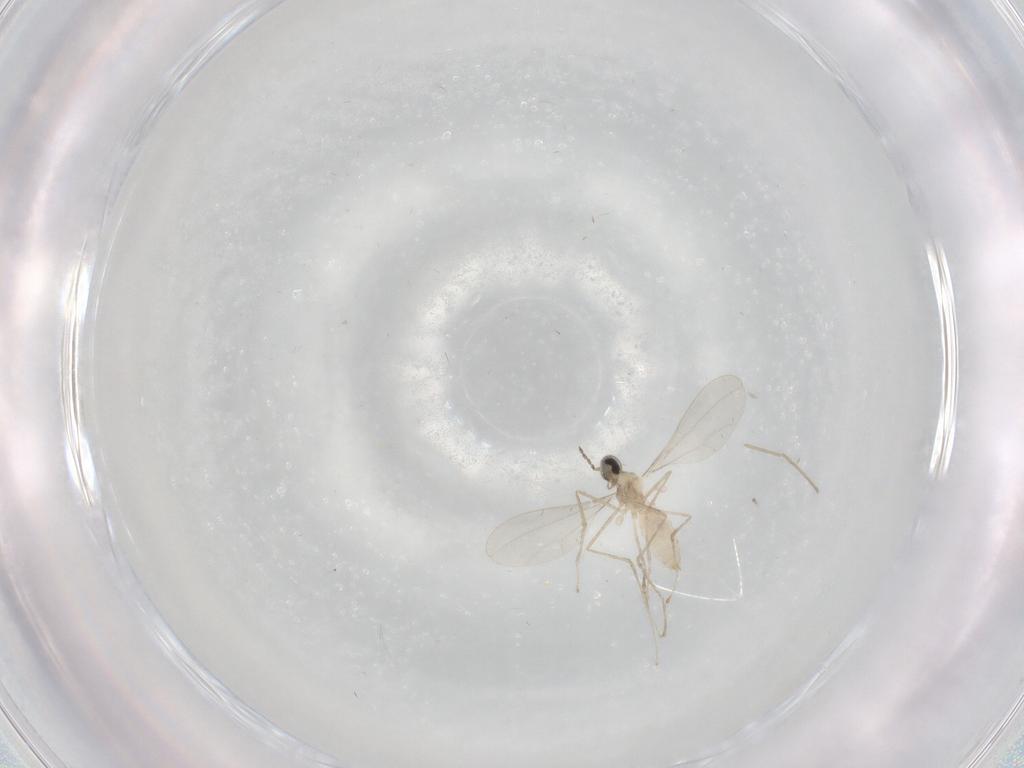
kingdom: Animalia
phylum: Arthropoda
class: Insecta
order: Diptera
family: Cecidomyiidae
